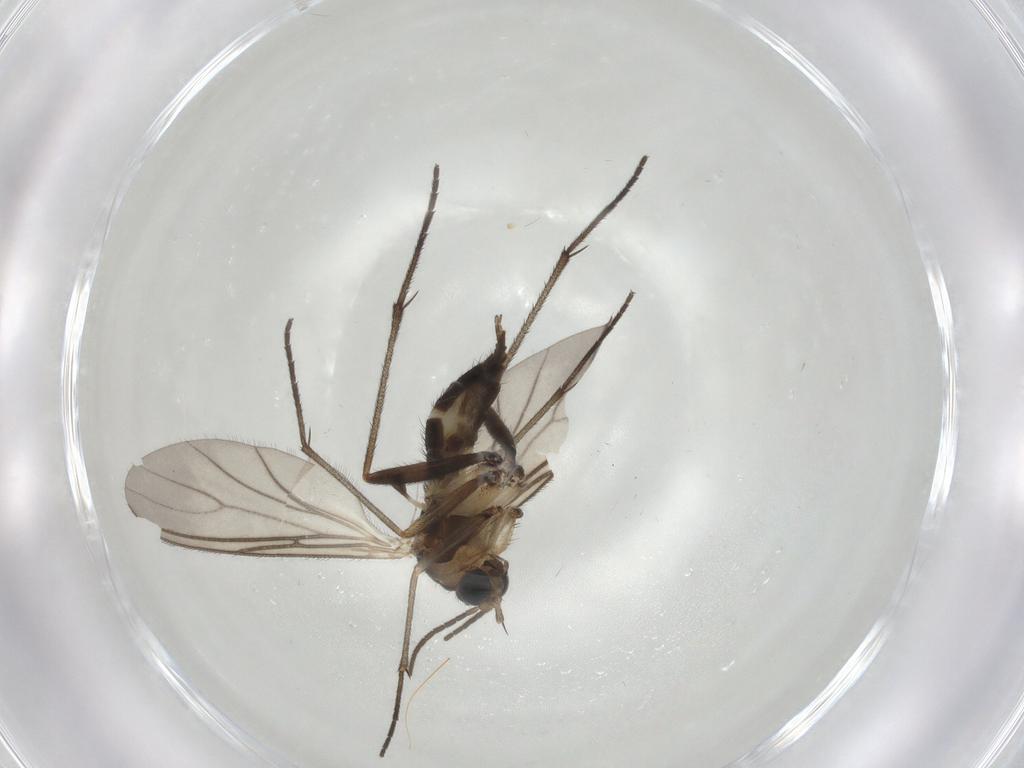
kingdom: Animalia
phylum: Arthropoda
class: Insecta
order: Diptera
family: Sciaridae
